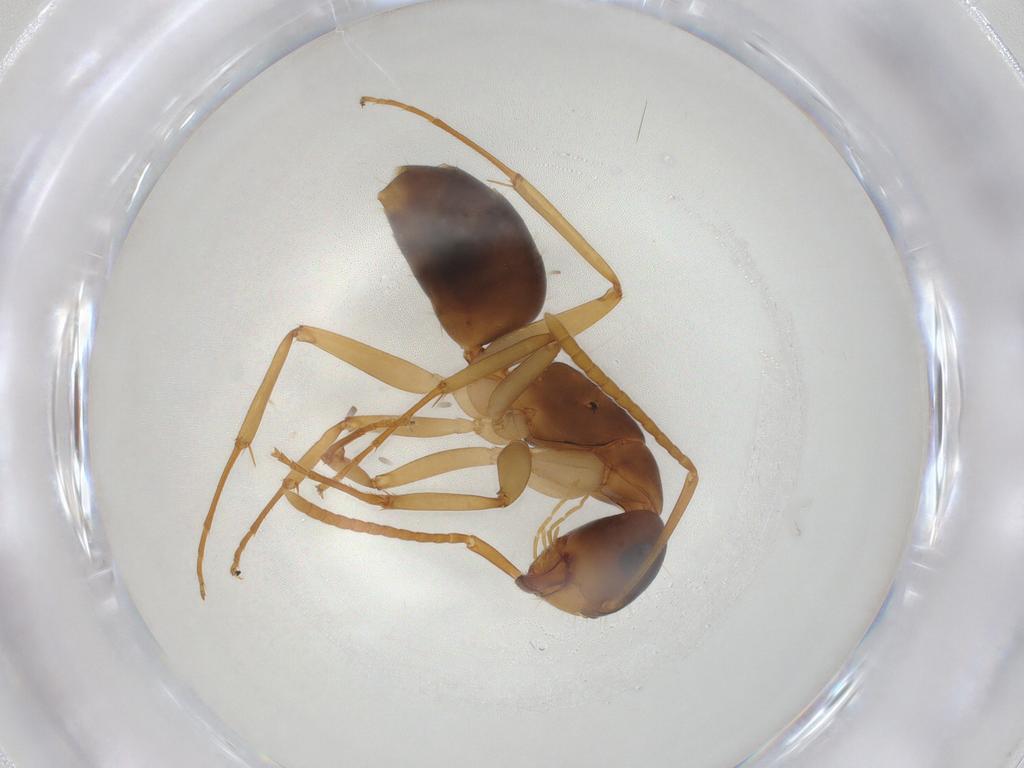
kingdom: Animalia
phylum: Arthropoda
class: Insecta
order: Hymenoptera
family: Formicidae
